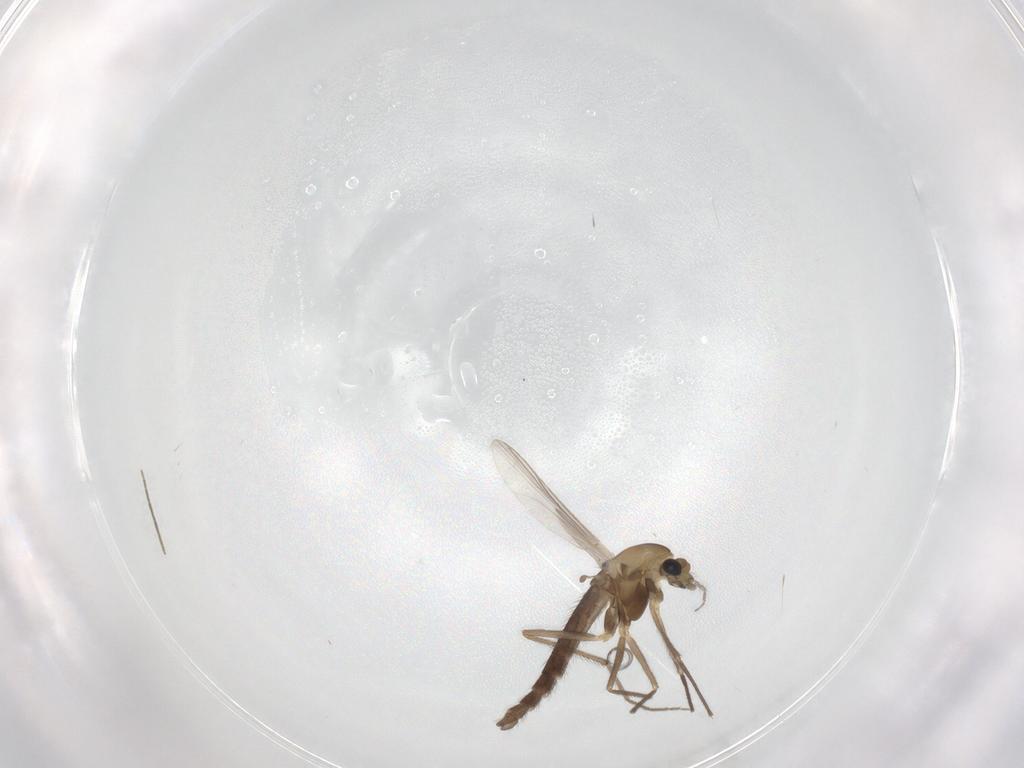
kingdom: Animalia
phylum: Arthropoda
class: Insecta
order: Diptera
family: Chironomidae
